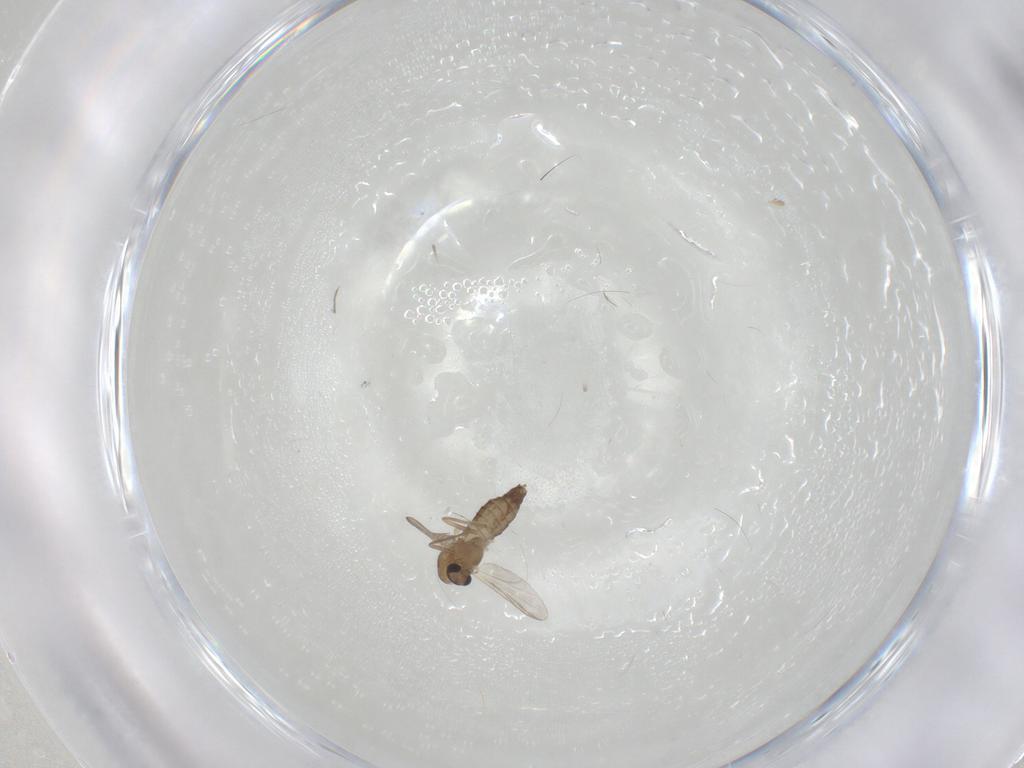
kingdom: Animalia
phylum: Arthropoda
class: Insecta
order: Diptera
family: Chironomidae
